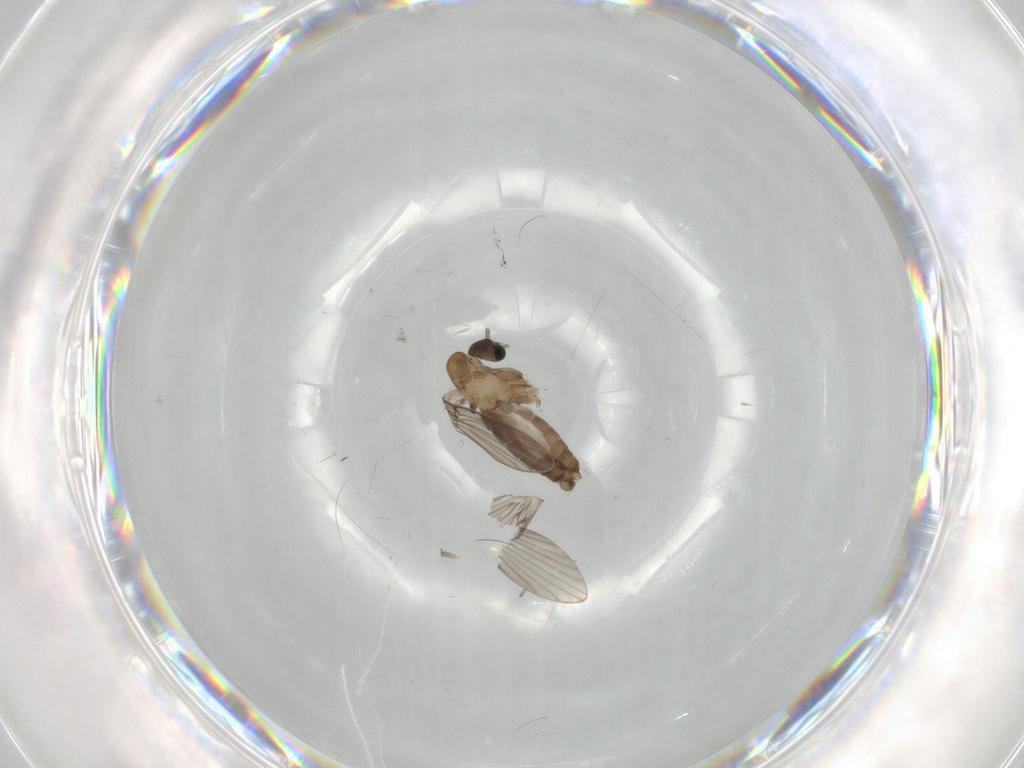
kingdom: Animalia
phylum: Arthropoda
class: Insecta
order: Diptera
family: Psychodidae
